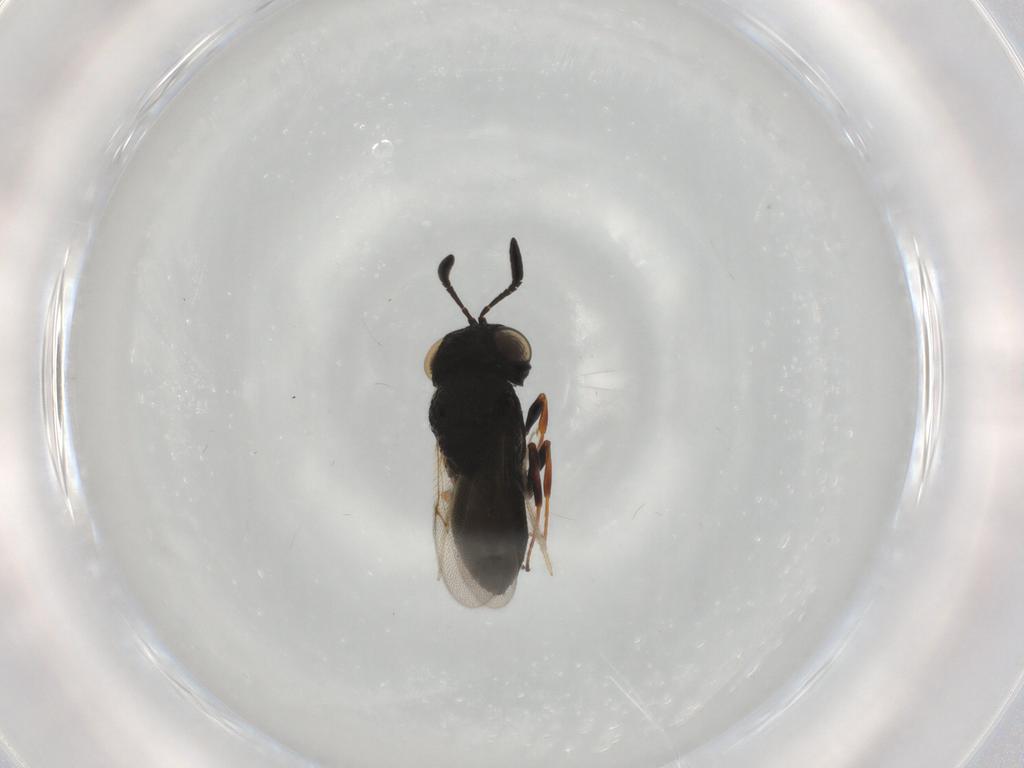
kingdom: Animalia
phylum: Arthropoda
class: Insecta
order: Hymenoptera
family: Scelionidae
